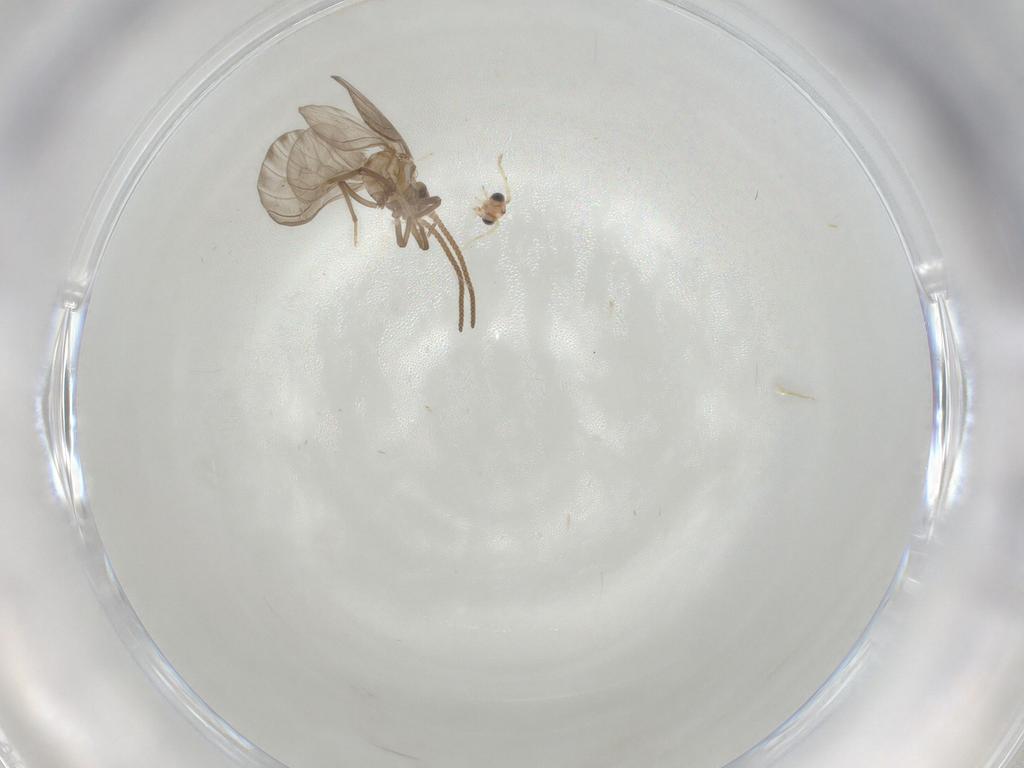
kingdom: Animalia
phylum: Arthropoda
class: Insecta
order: Neuroptera
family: Coniopterygidae
